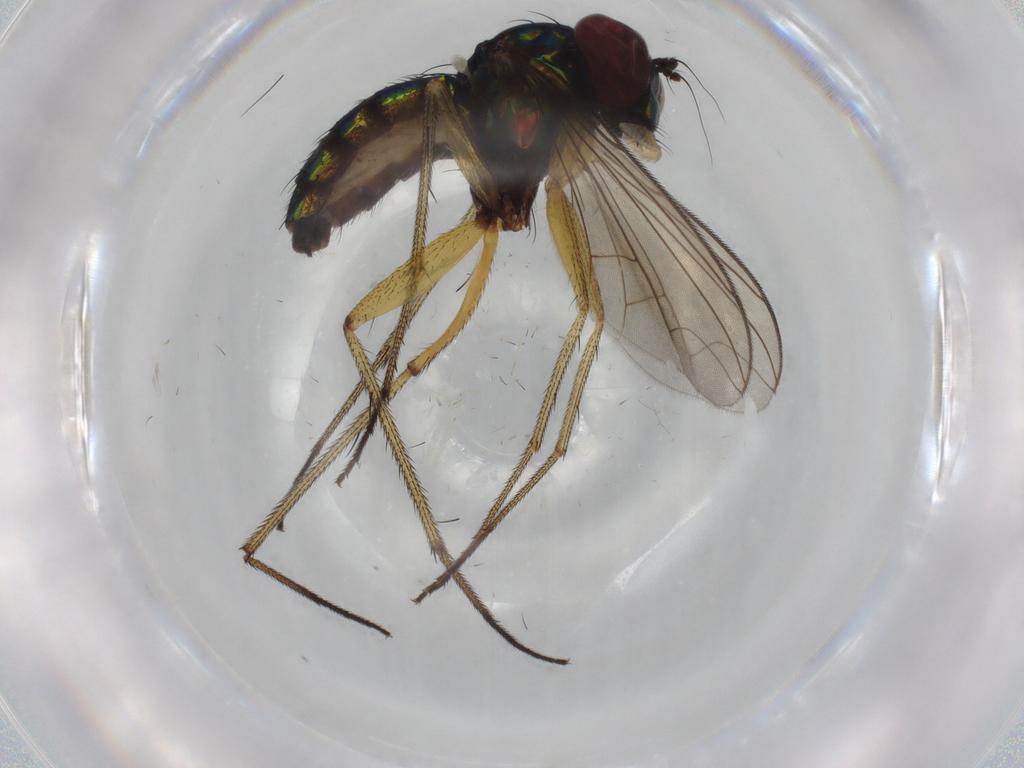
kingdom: Animalia
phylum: Arthropoda
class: Insecta
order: Diptera
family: Dolichopodidae
